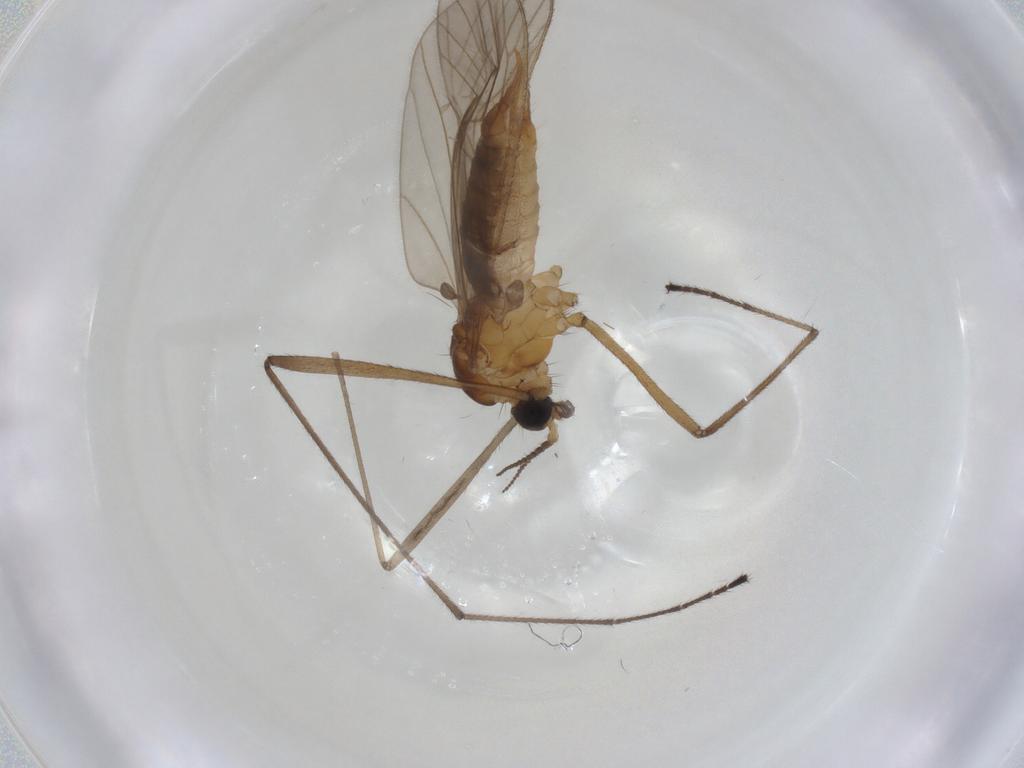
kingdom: Animalia
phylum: Arthropoda
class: Insecta
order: Diptera
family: Limoniidae
